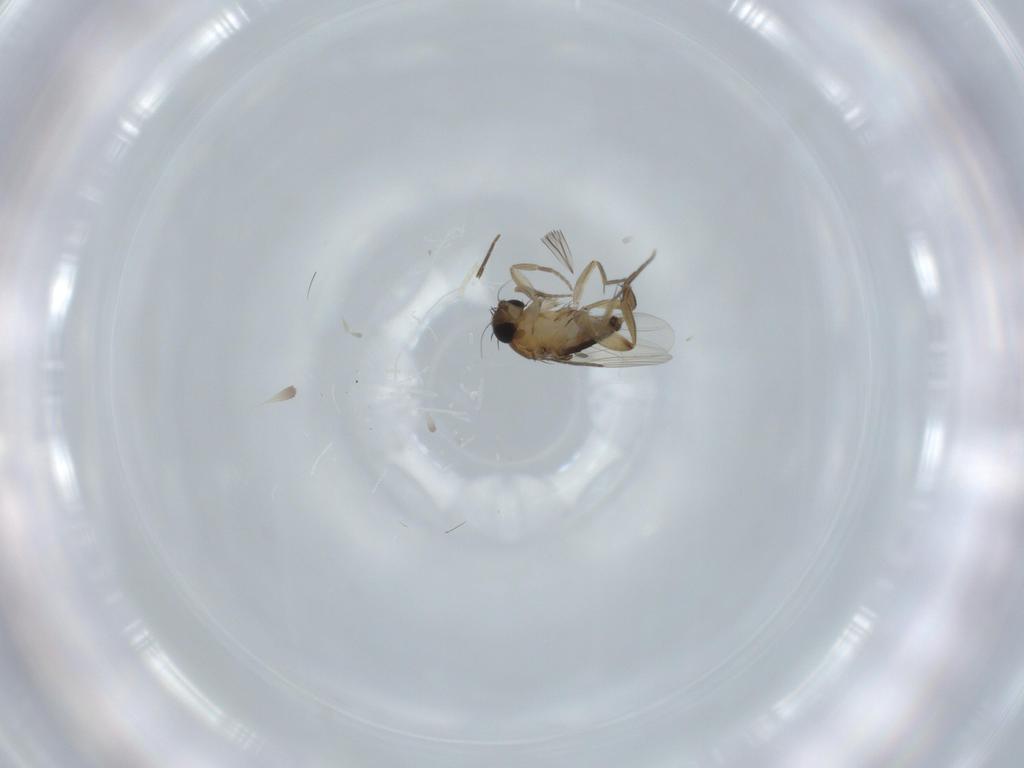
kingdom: Animalia
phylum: Arthropoda
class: Insecta
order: Diptera
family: Phoridae
